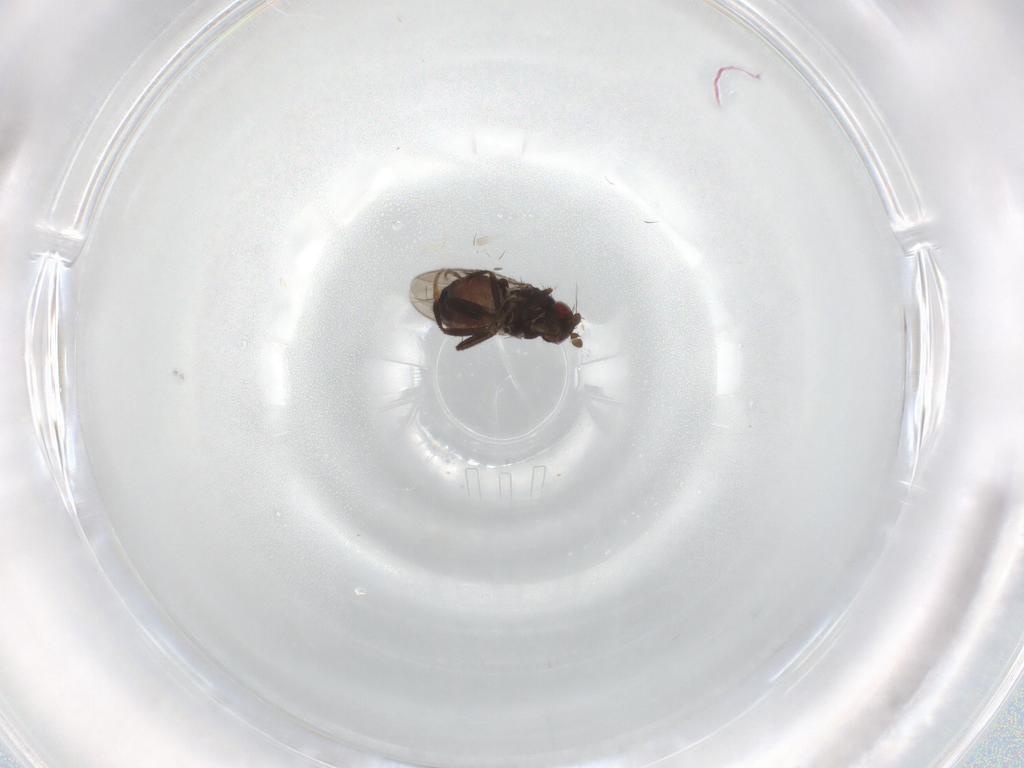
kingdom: Animalia
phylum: Arthropoda
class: Insecta
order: Diptera
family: Sphaeroceridae
